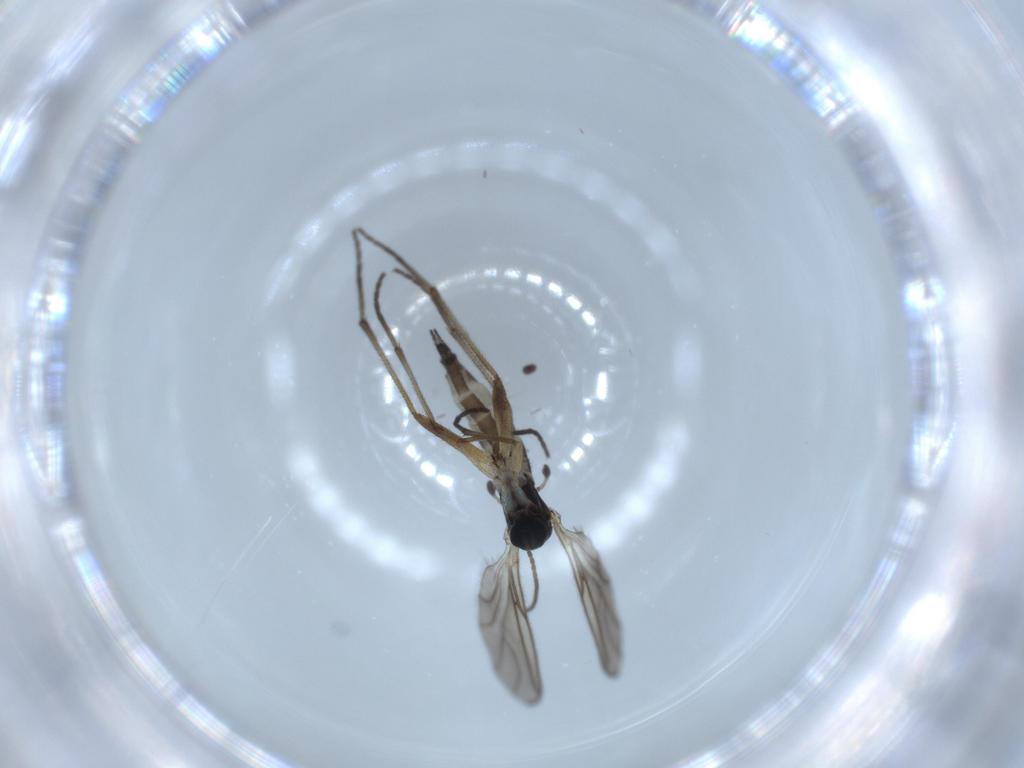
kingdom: Animalia
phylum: Arthropoda
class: Insecta
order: Diptera
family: Sciaridae
